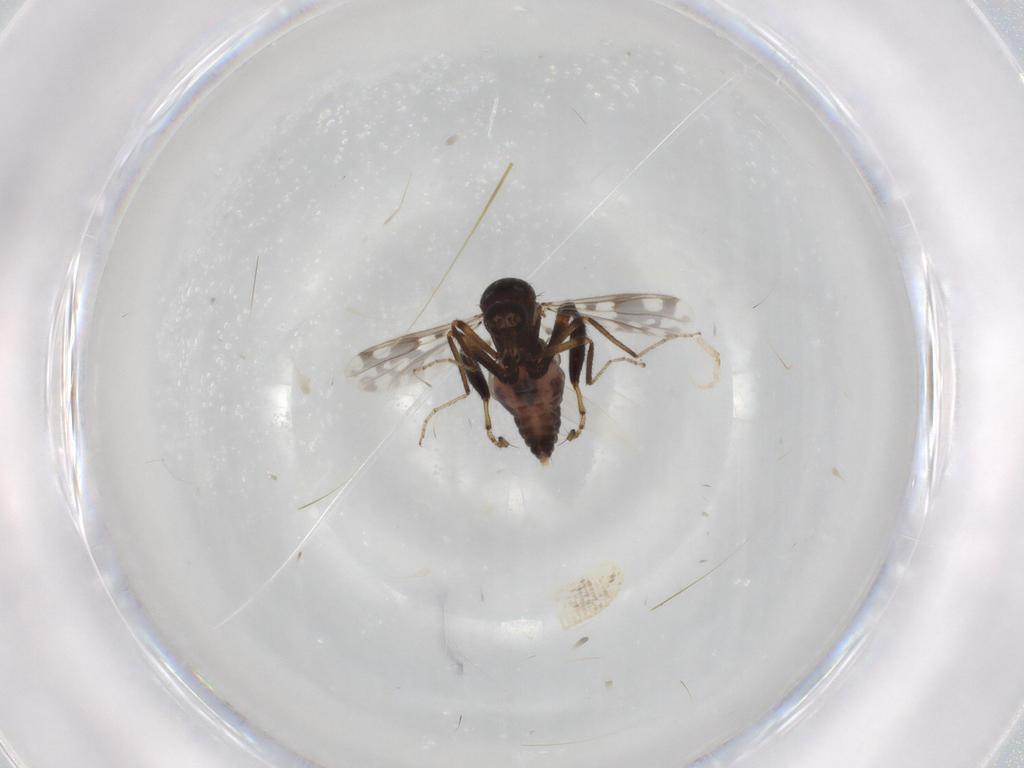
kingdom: Animalia
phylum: Arthropoda
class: Insecta
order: Diptera
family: Ceratopogonidae
